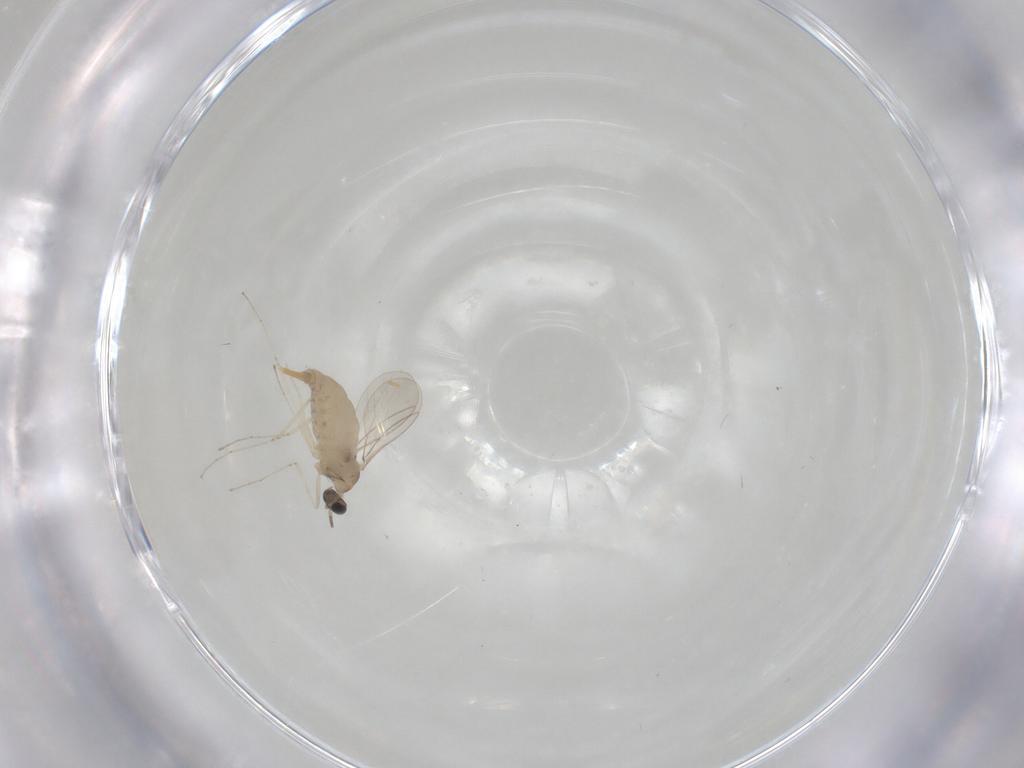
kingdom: Animalia
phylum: Arthropoda
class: Insecta
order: Diptera
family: Cecidomyiidae
